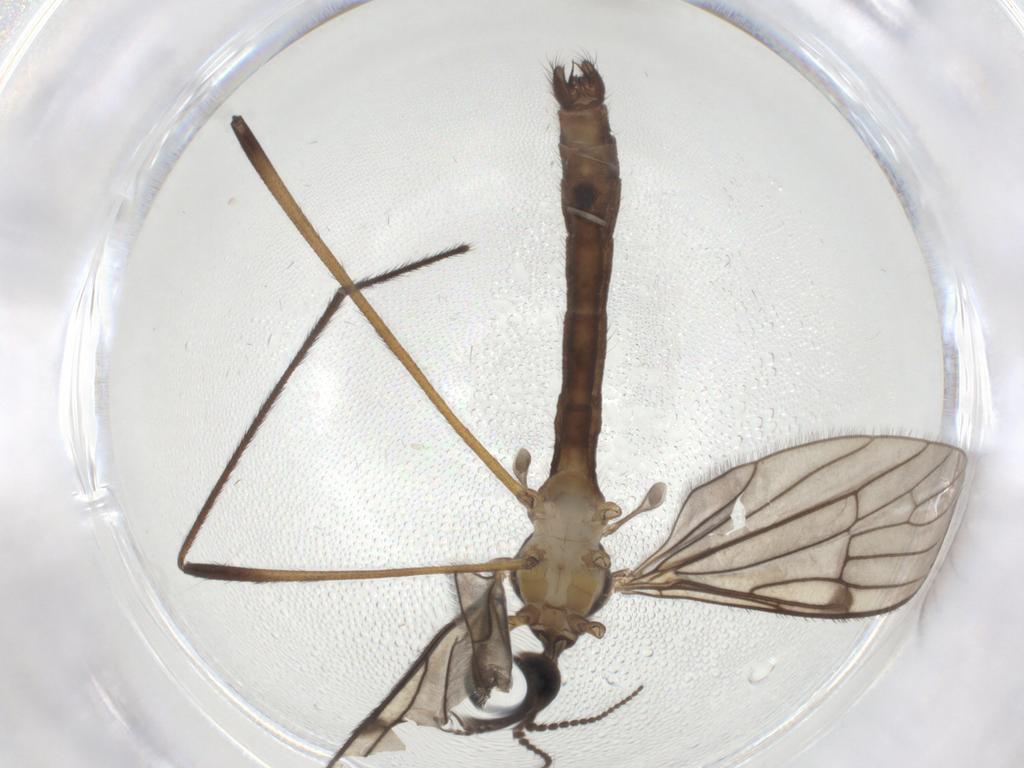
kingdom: Animalia
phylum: Arthropoda
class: Insecta
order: Diptera
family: Limoniidae
